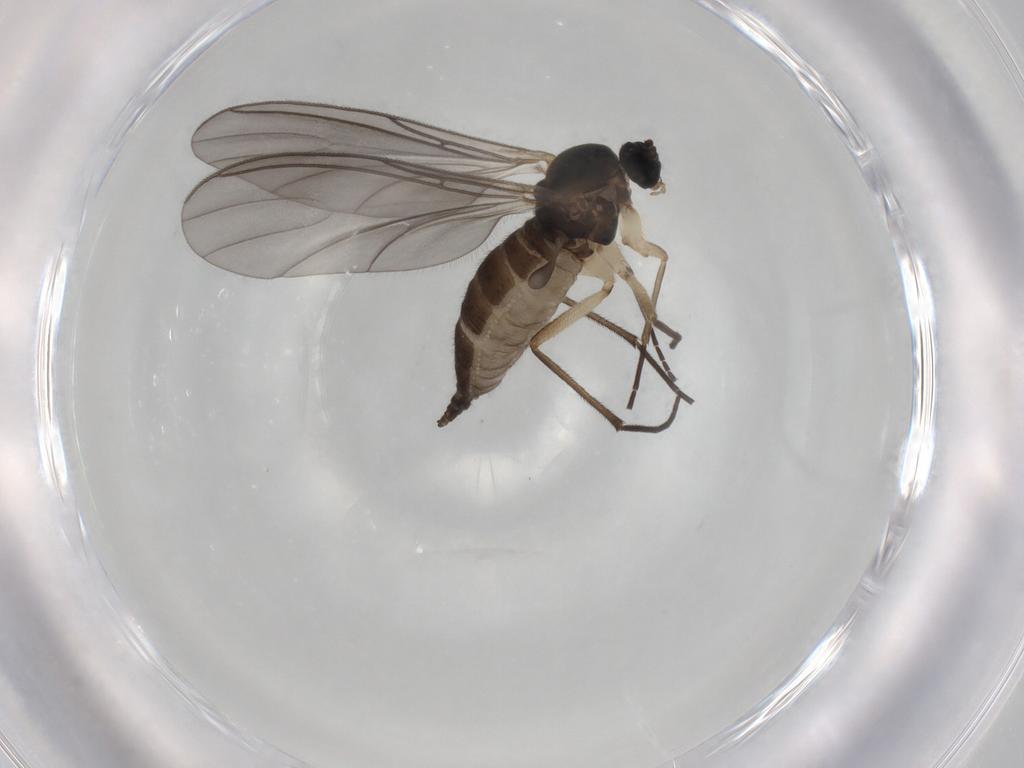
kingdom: Animalia
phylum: Arthropoda
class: Insecta
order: Diptera
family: Sciaridae
